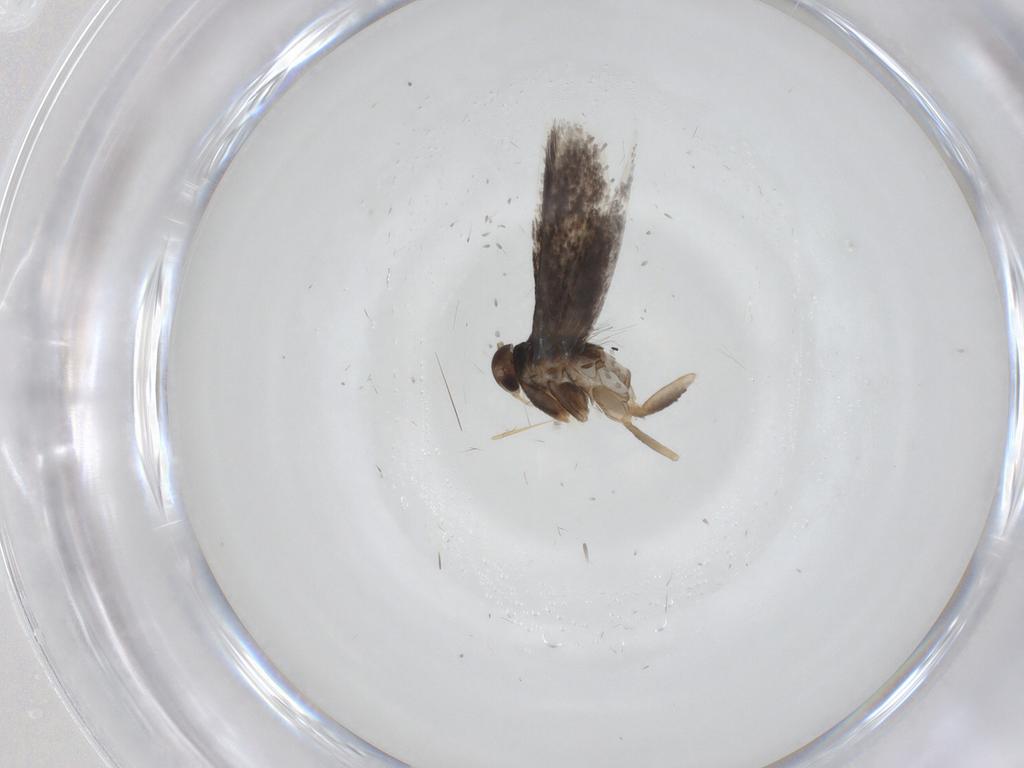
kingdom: Animalia
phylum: Arthropoda
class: Insecta
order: Lepidoptera
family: Elachistidae
